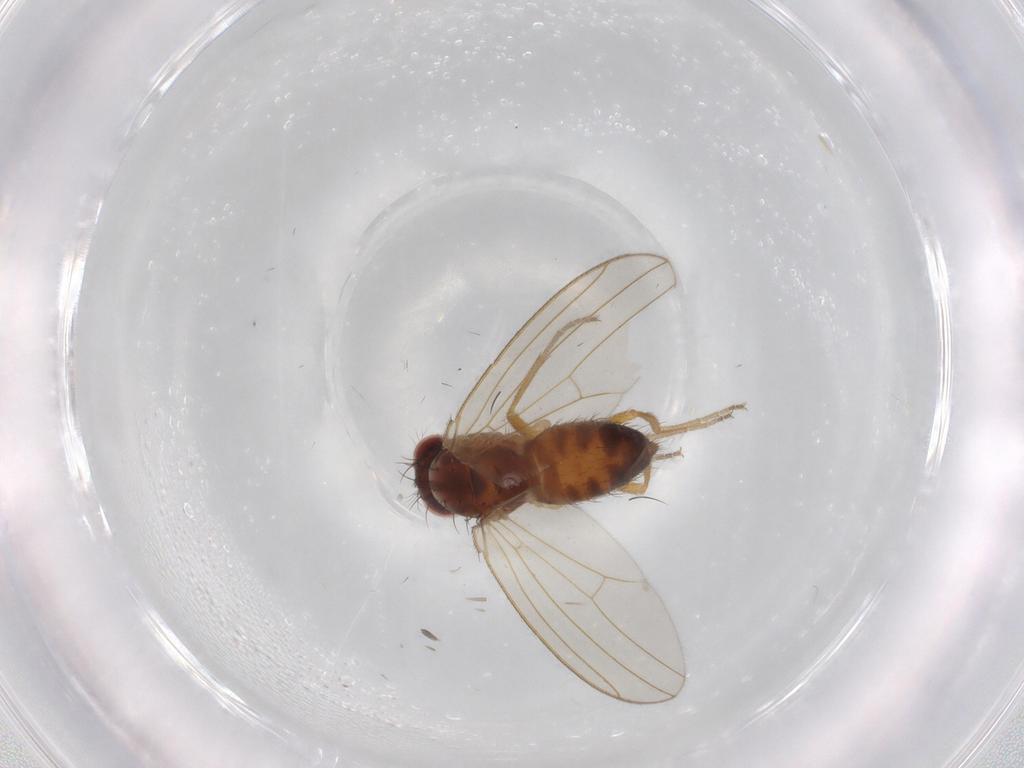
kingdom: Animalia
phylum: Arthropoda
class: Insecta
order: Diptera
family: Drosophilidae
